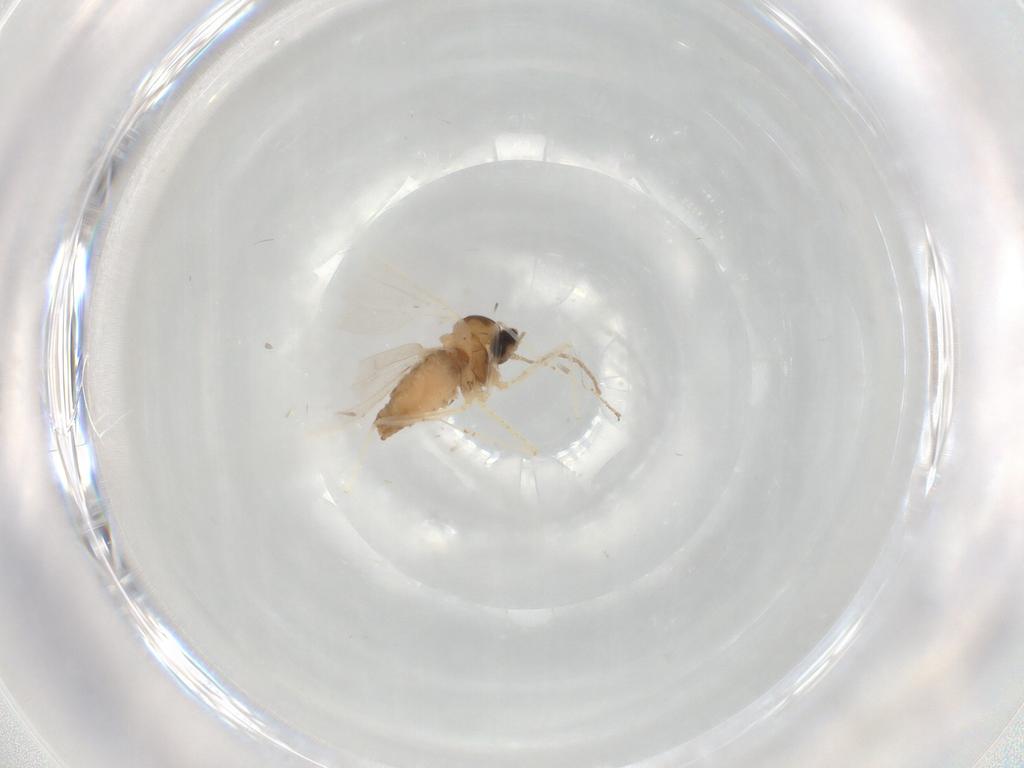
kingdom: Animalia
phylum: Arthropoda
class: Insecta
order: Diptera
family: Cecidomyiidae
